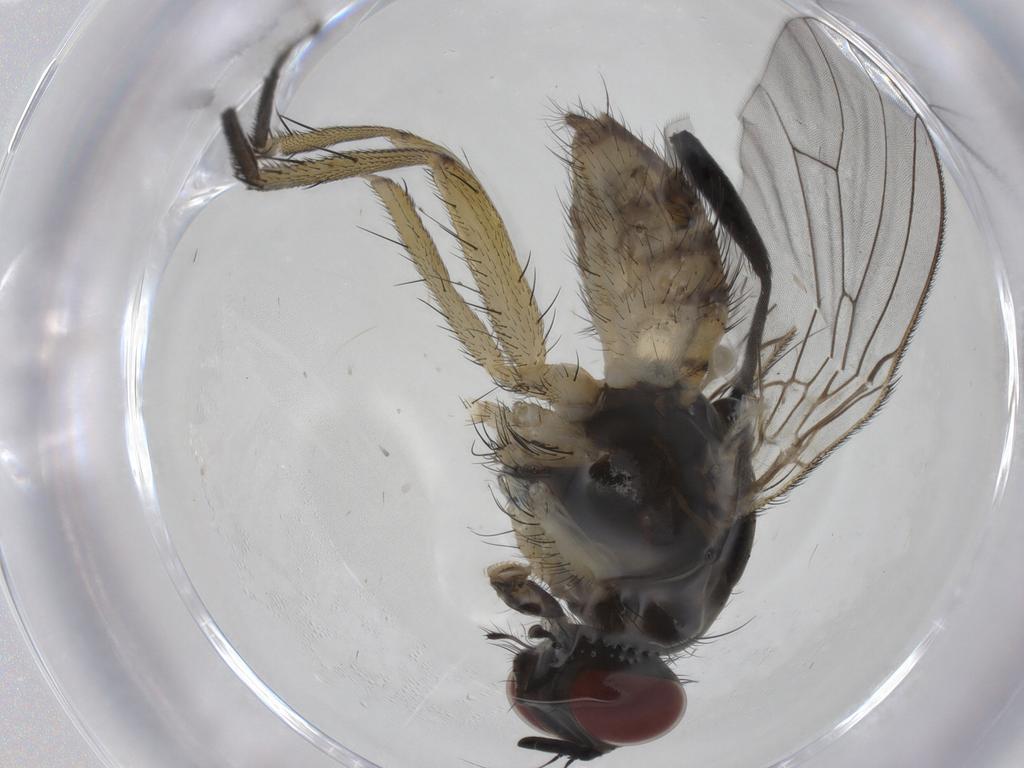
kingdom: Animalia
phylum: Arthropoda
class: Insecta
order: Diptera
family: Muscidae
